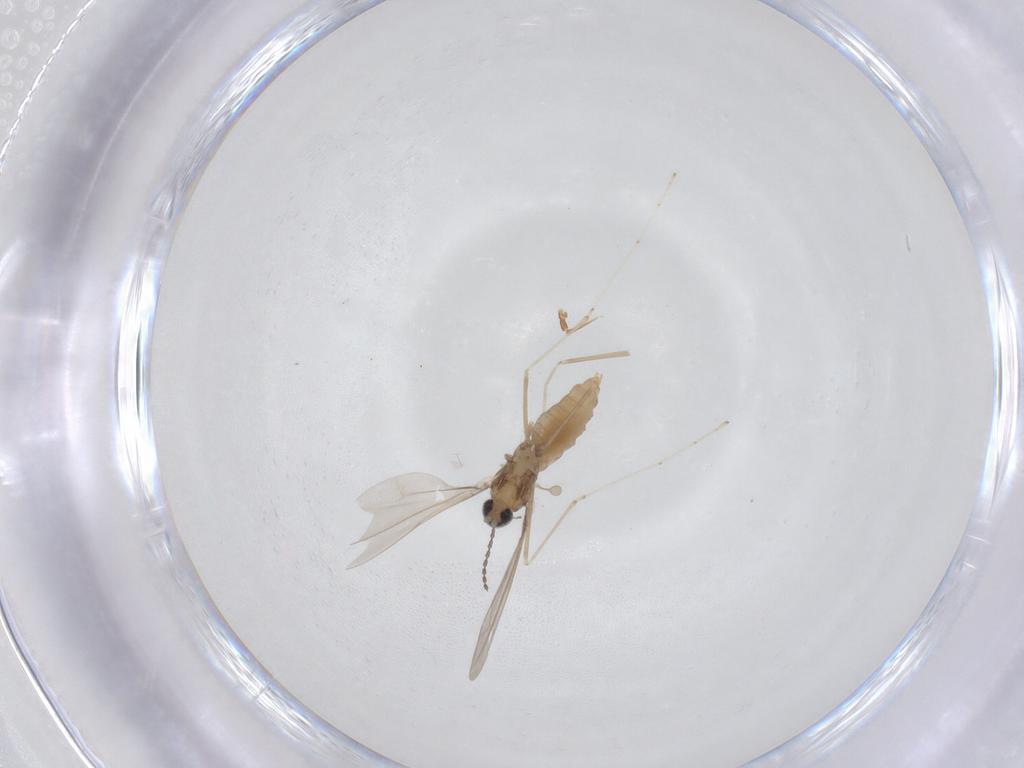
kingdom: Animalia
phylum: Arthropoda
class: Insecta
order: Diptera
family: Cecidomyiidae
